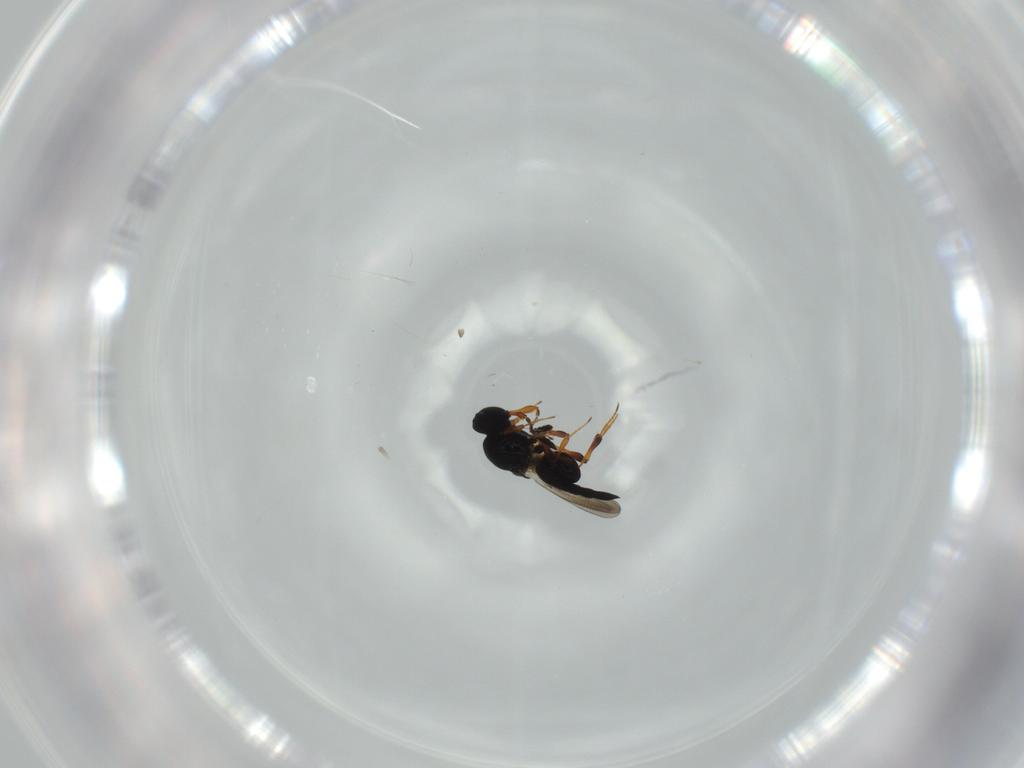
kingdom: Animalia
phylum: Arthropoda
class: Insecta
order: Hymenoptera
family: Platygastridae
